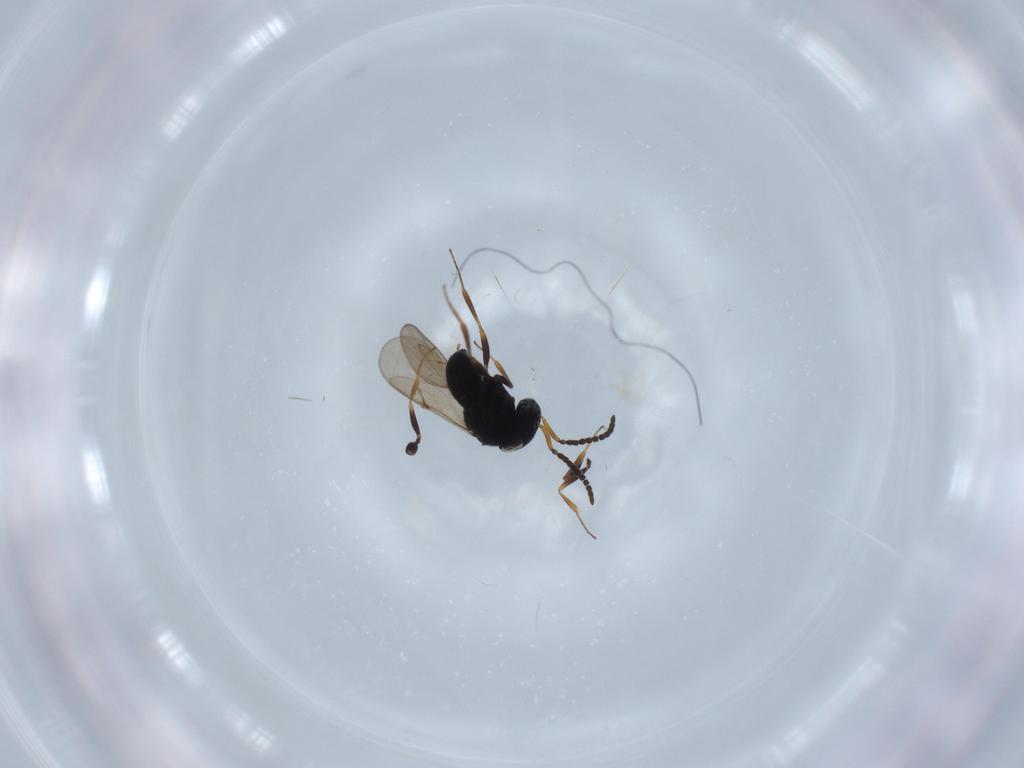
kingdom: Animalia
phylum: Arthropoda
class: Insecta
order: Hymenoptera
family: Scelionidae
